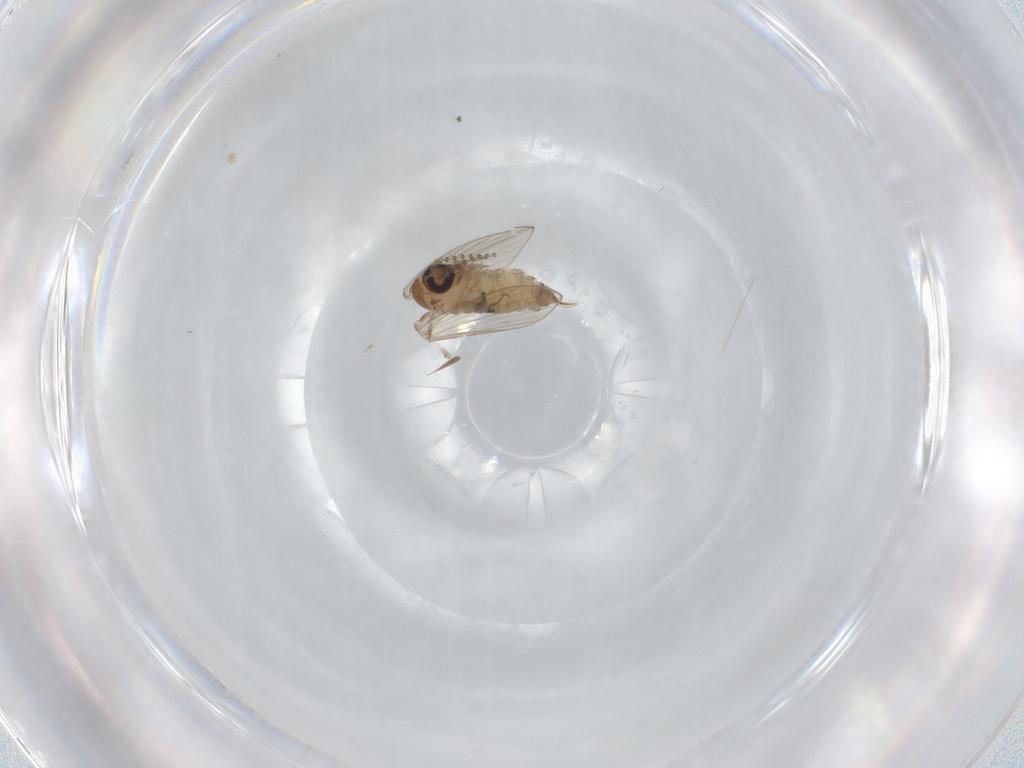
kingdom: Animalia
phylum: Arthropoda
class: Insecta
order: Diptera
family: Psychodidae
